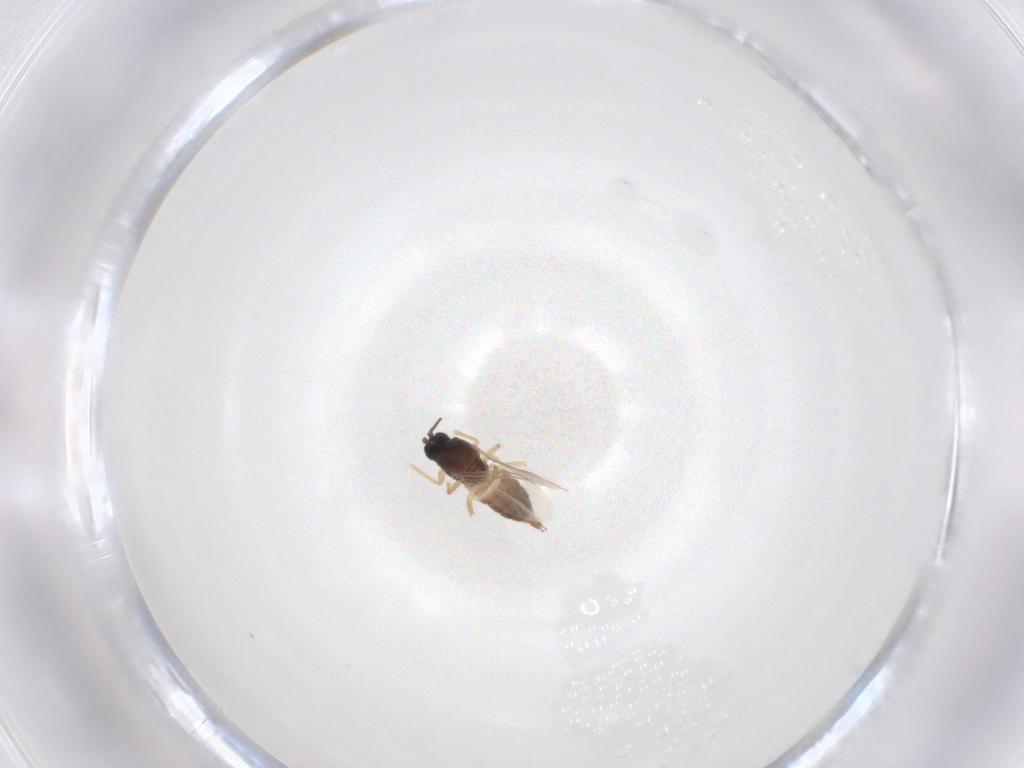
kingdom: Animalia
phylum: Arthropoda
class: Insecta
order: Diptera
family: Sciaridae
